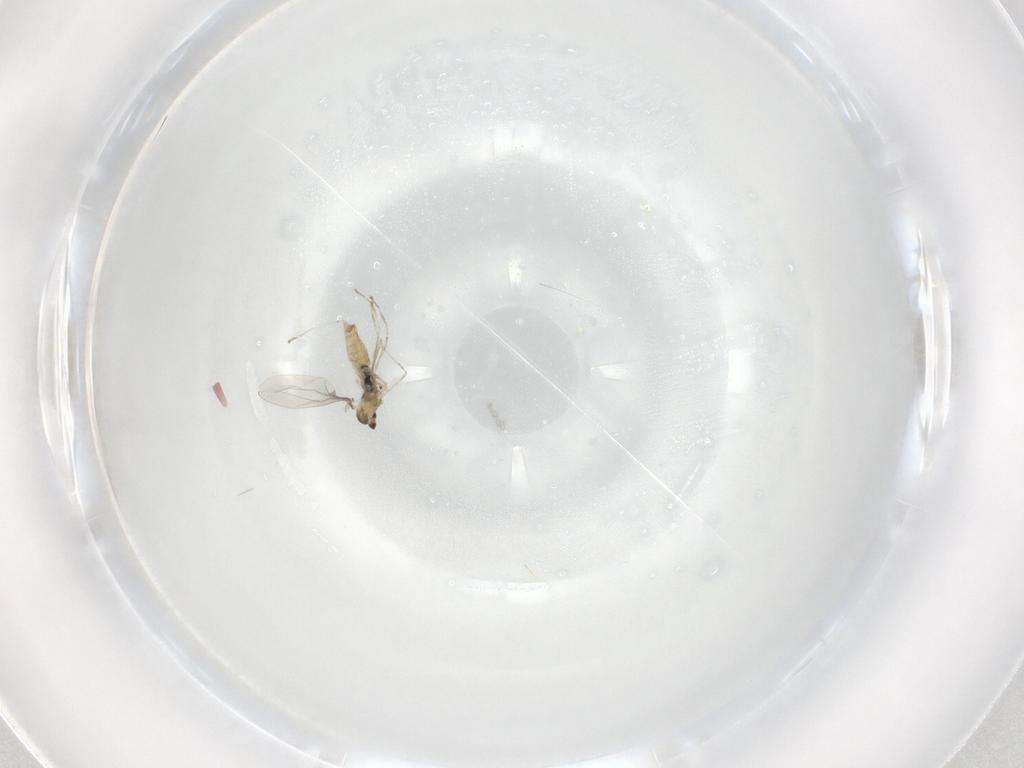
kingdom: Animalia
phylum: Arthropoda
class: Insecta
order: Diptera
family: Cecidomyiidae
